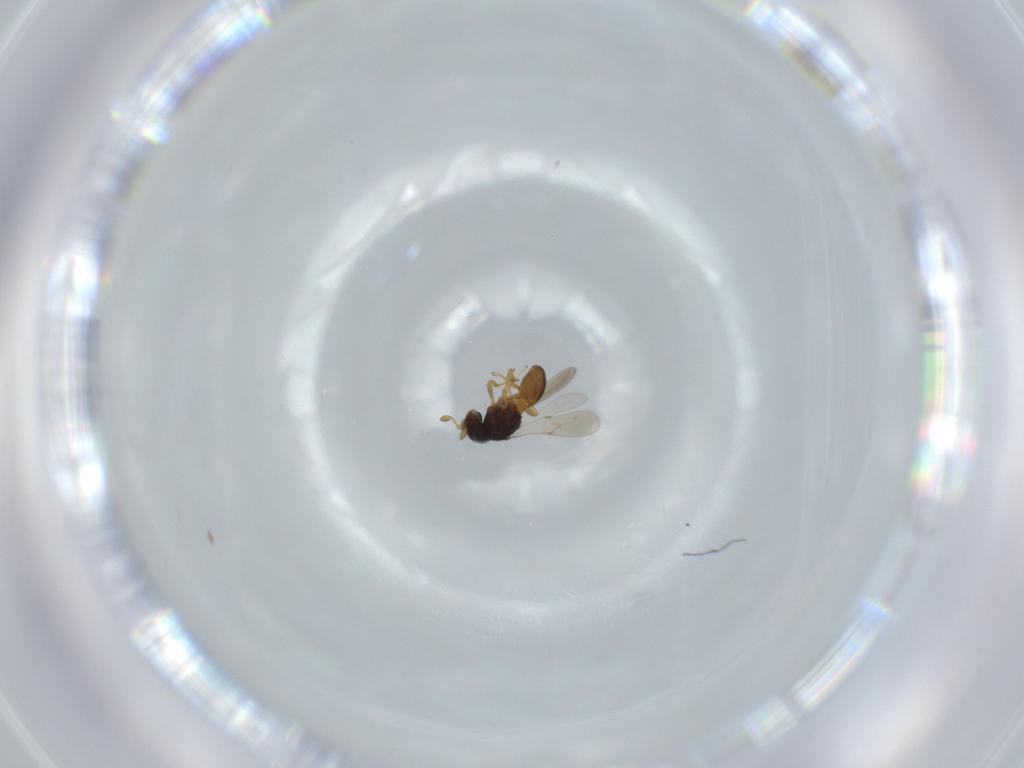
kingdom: Animalia
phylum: Arthropoda
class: Insecta
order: Hymenoptera
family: Scelionidae
